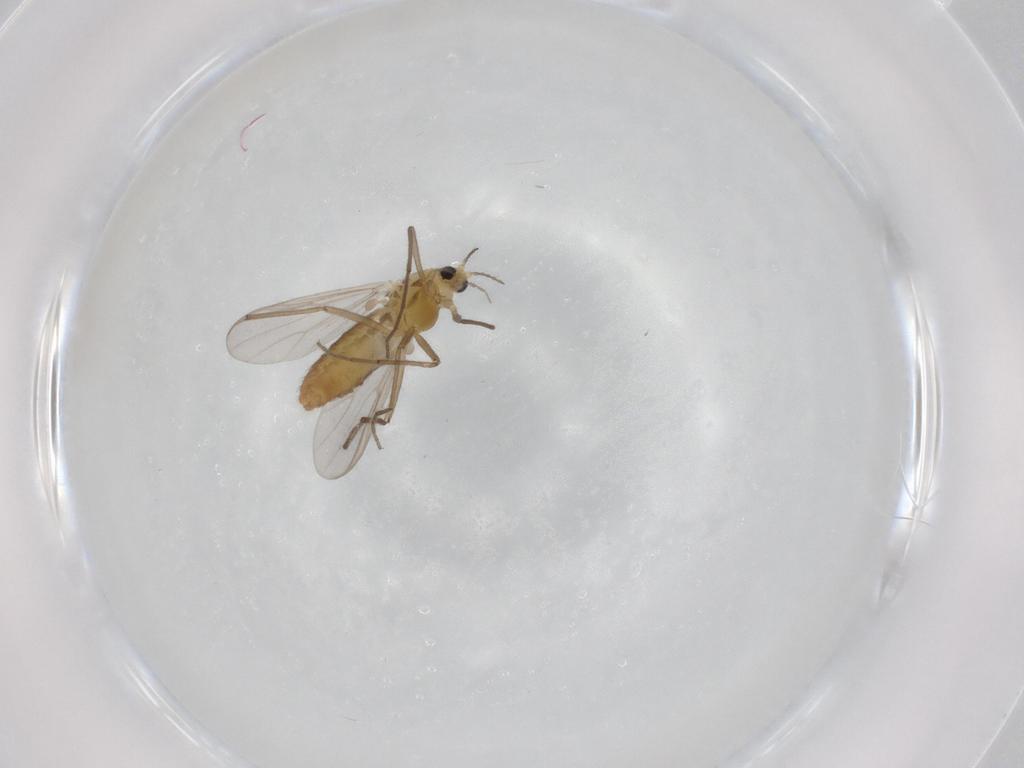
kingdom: Animalia
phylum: Arthropoda
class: Insecta
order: Diptera
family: Chironomidae
